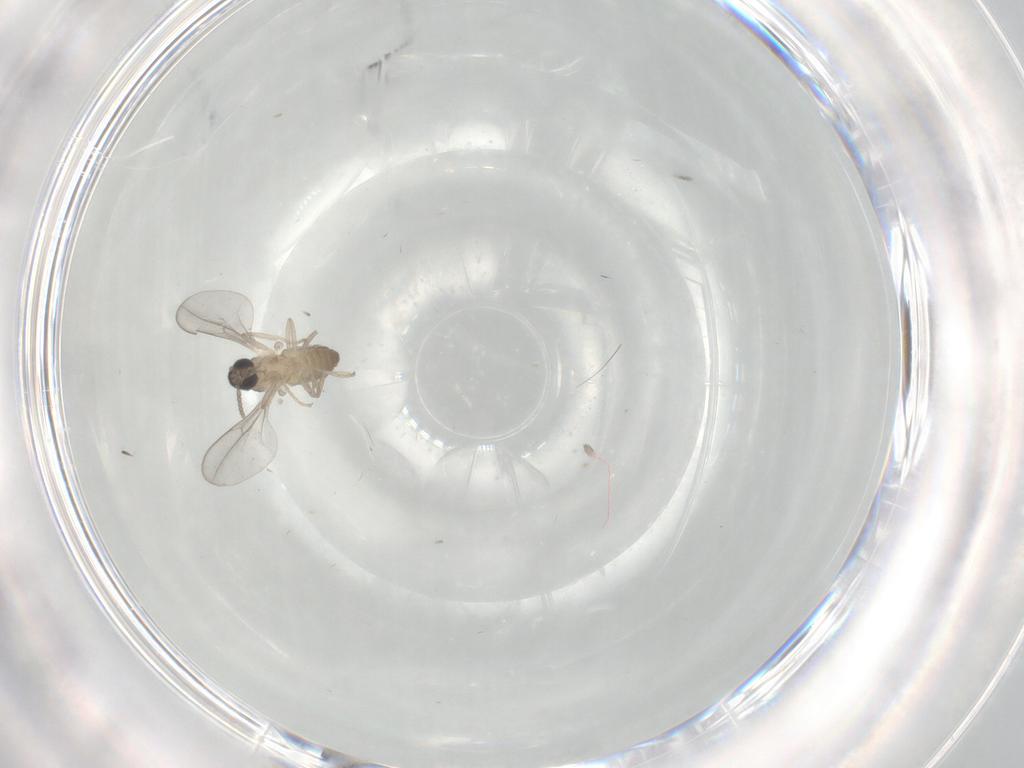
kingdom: Animalia
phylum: Arthropoda
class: Insecta
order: Diptera
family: Cecidomyiidae
